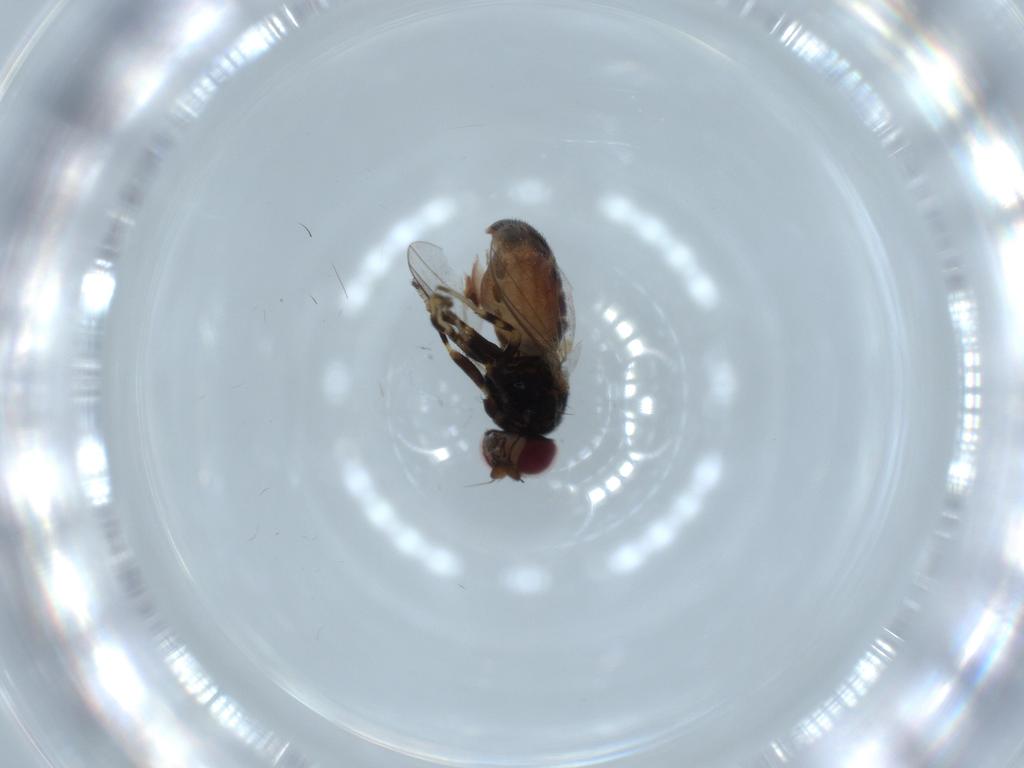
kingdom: Animalia
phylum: Arthropoda
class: Insecta
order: Diptera
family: Chloropidae
